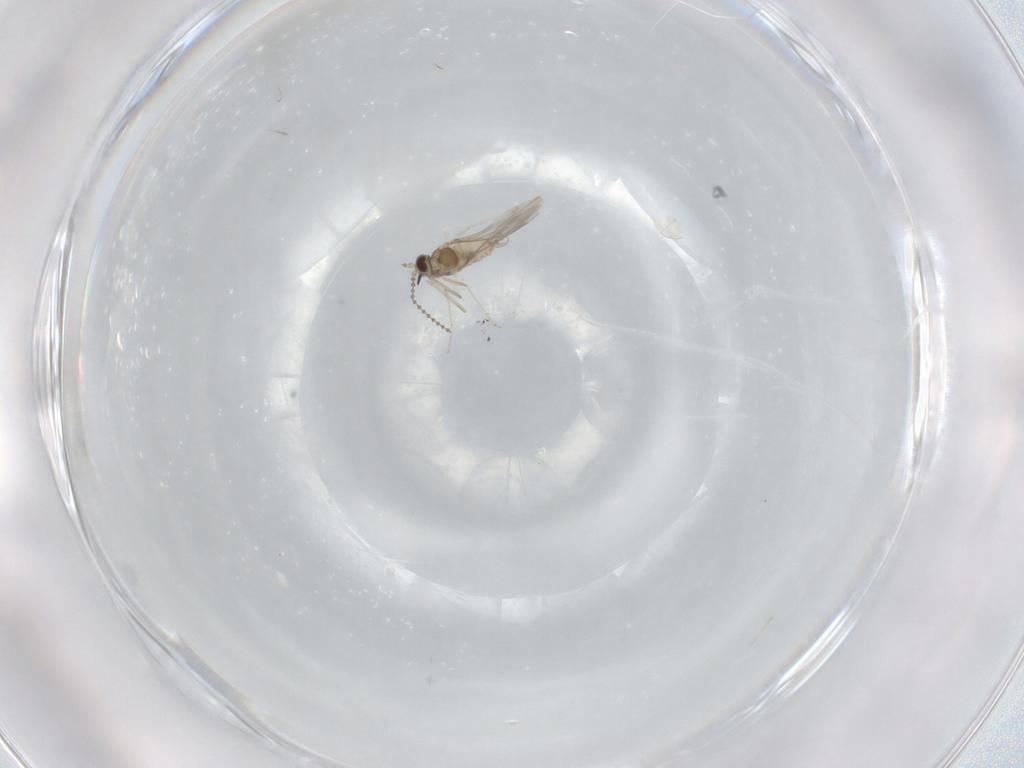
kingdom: Animalia
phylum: Arthropoda
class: Insecta
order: Diptera
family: Cecidomyiidae
